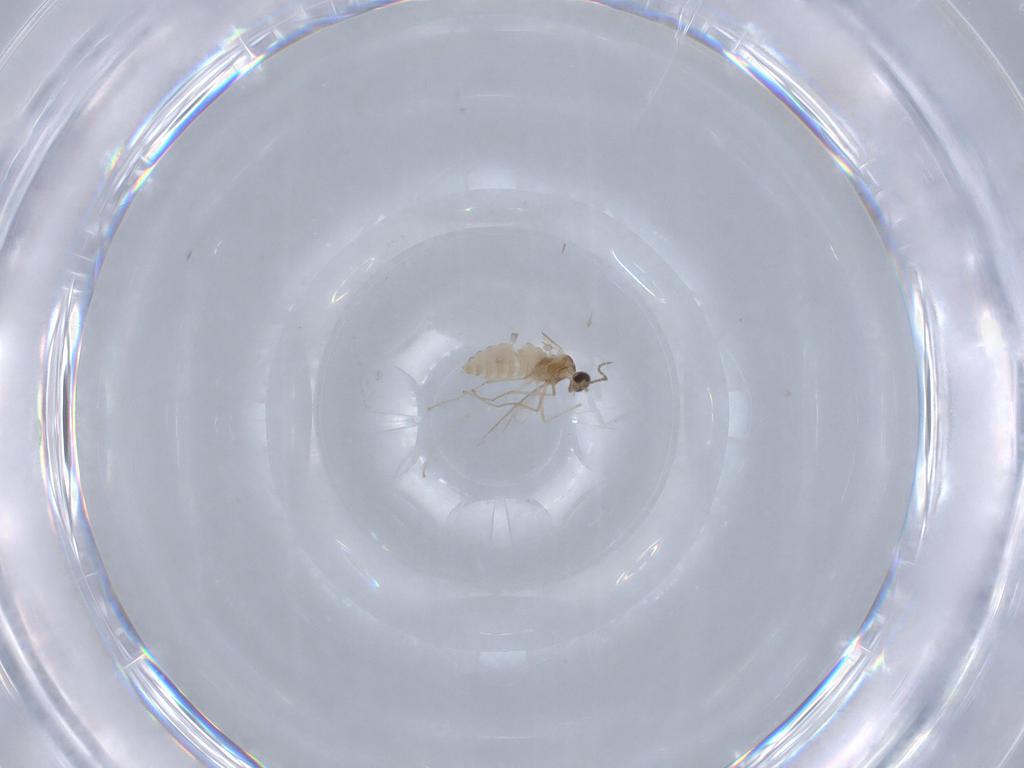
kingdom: Animalia
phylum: Arthropoda
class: Insecta
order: Diptera
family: Cecidomyiidae
